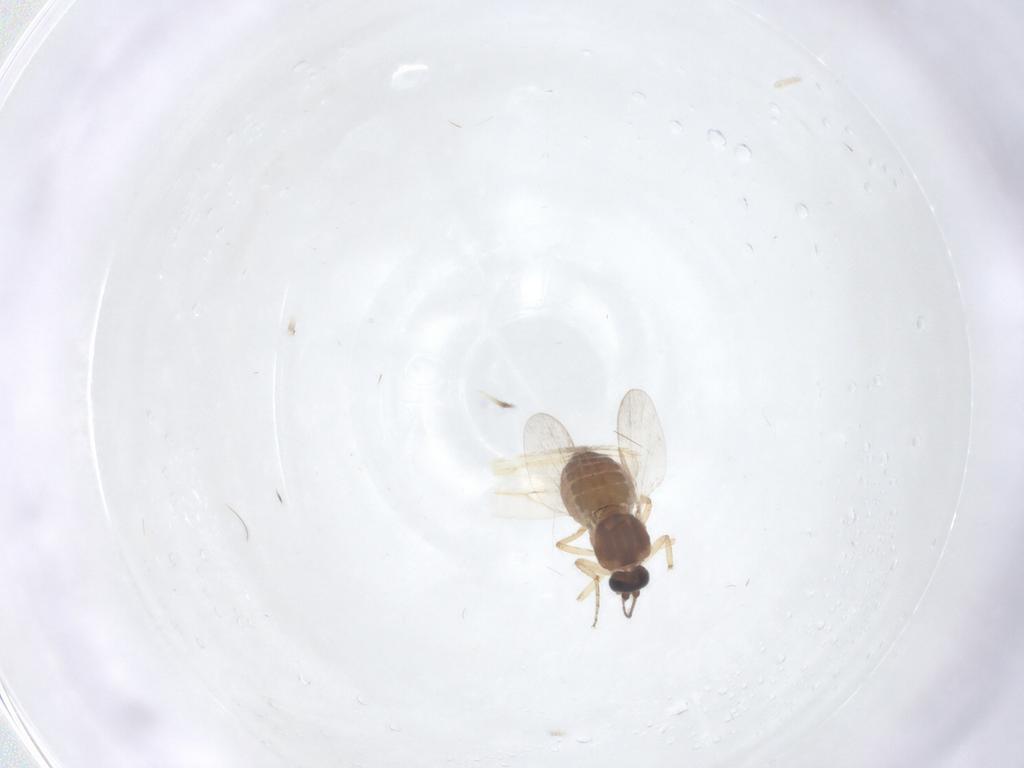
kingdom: Animalia
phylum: Arthropoda
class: Insecta
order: Diptera
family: Ceratopogonidae
